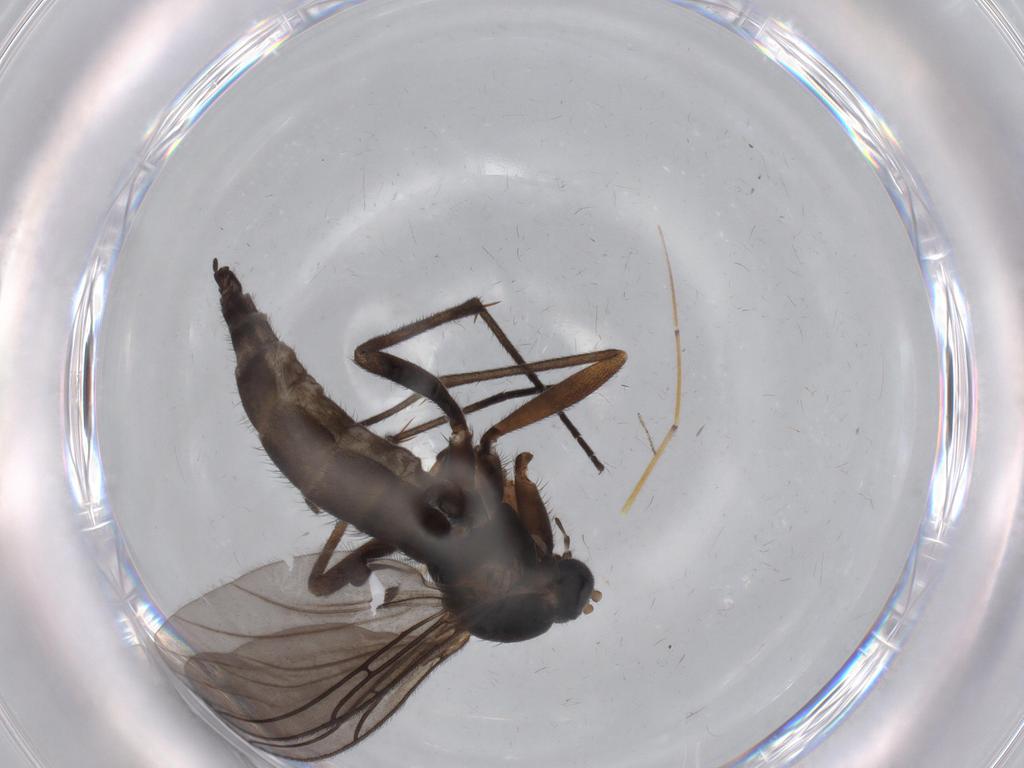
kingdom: Animalia
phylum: Arthropoda
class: Insecta
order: Diptera
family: Sciaridae
